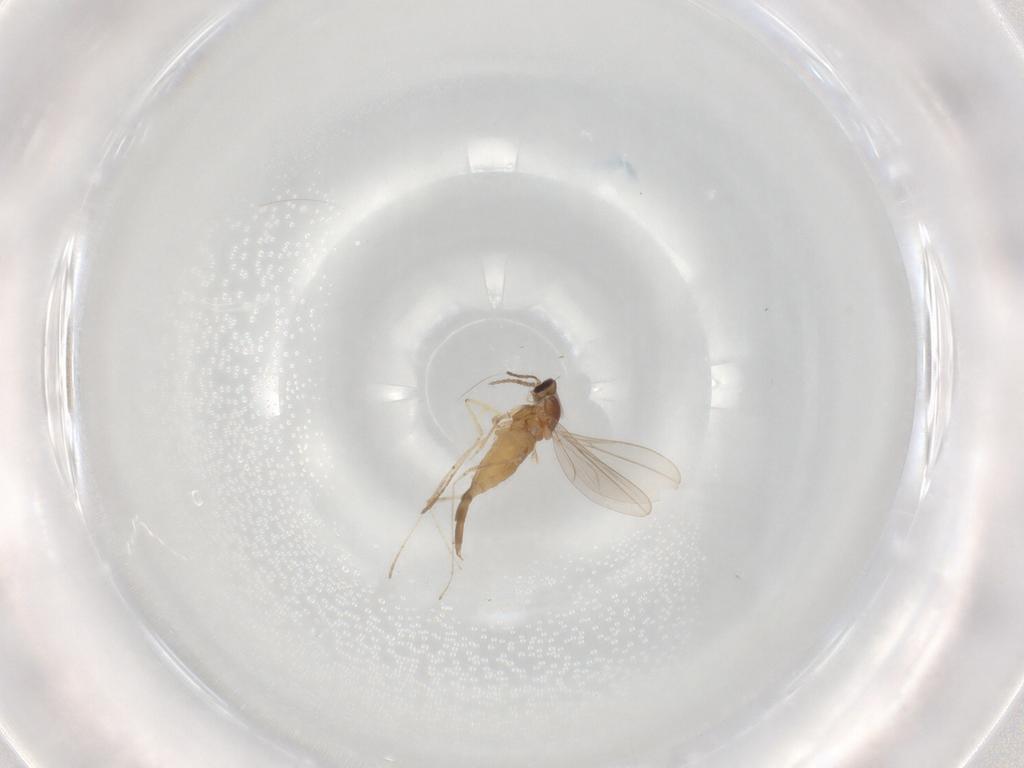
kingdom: Animalia
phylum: Arthropoda
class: Insecta
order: Diptera
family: Cecidomyiidae
